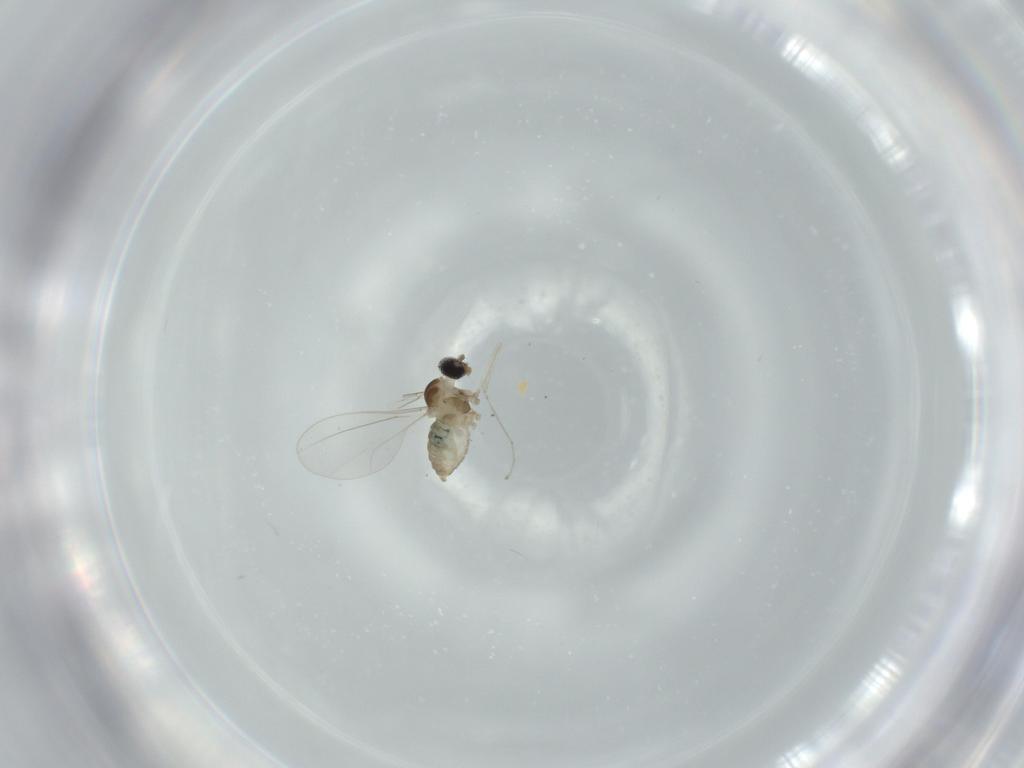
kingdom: Animalia
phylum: Arthropoda
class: Insecta
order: Diptera
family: Cecidomyiidae
